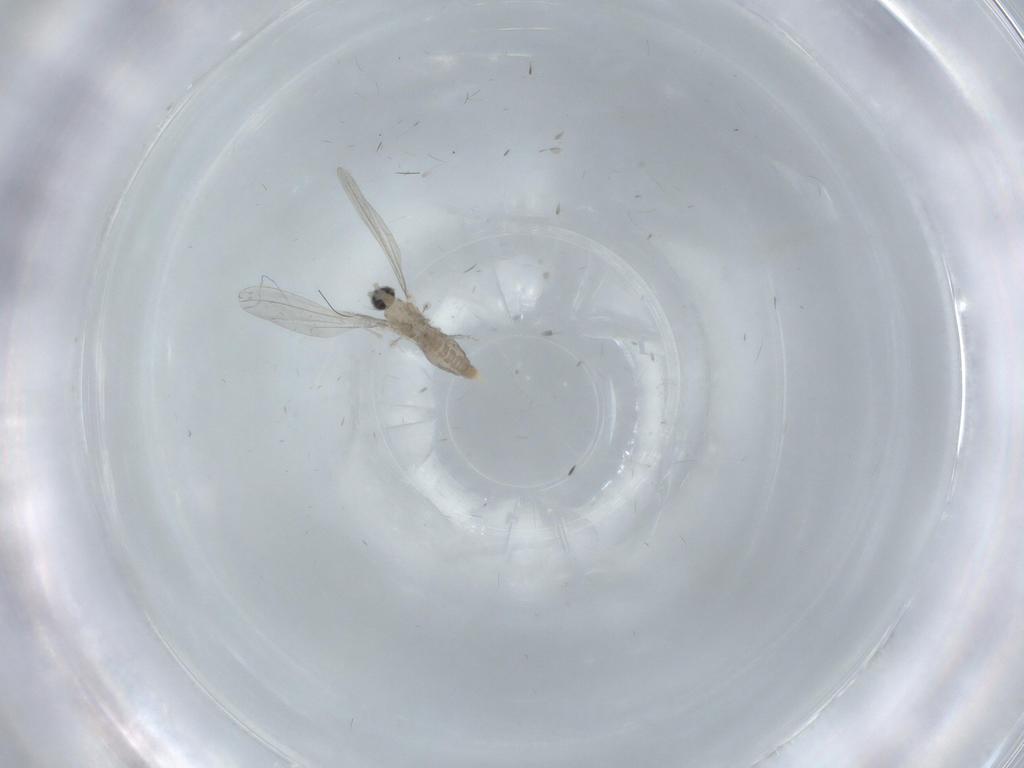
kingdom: Animalia
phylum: Arthropoda
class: Insecta
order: Diptera
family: Cecidomyiidae
